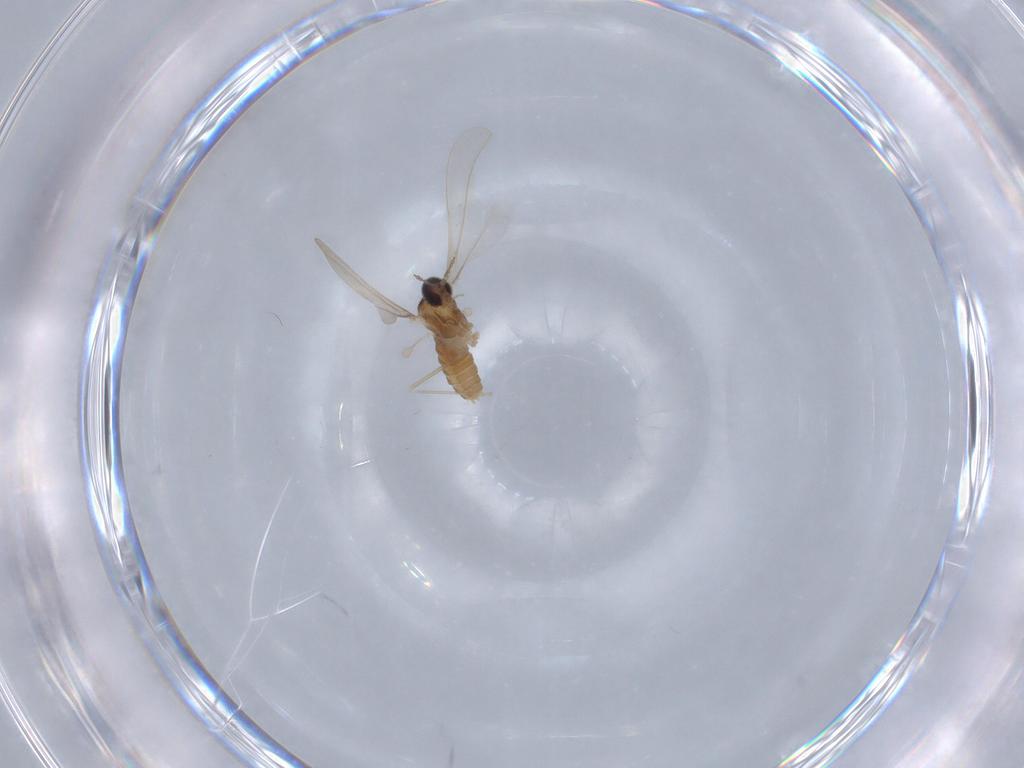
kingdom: Animalia
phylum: Arthropoda
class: Insecta
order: Diptera
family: Cecidomyiidae
